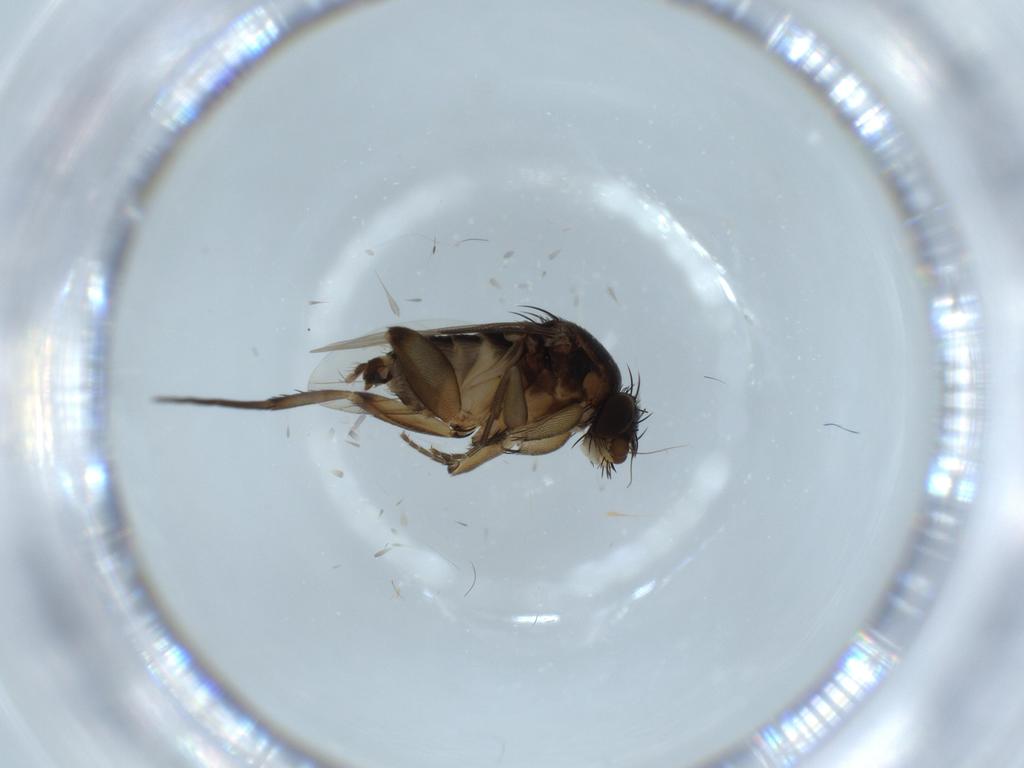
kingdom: Animalia
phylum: Arthropoda
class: Insecta
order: Diptera
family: Phoridae
